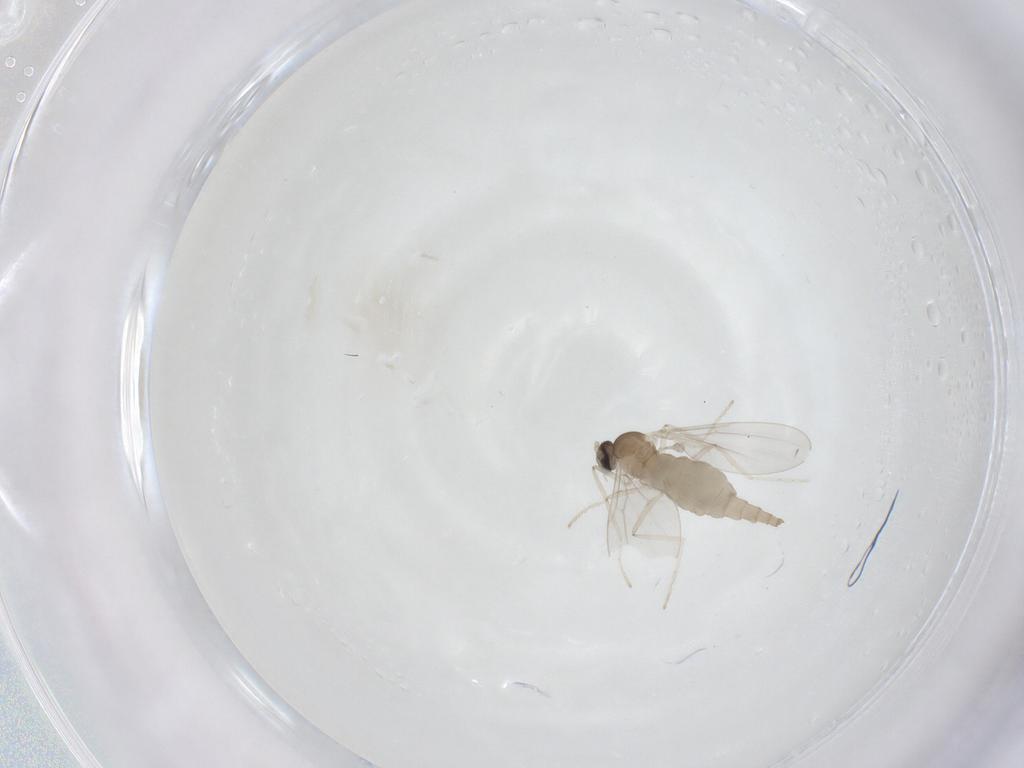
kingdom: Animalia
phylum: Arthropoda
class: Insecta
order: Diptera
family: Cecidomyiidae
